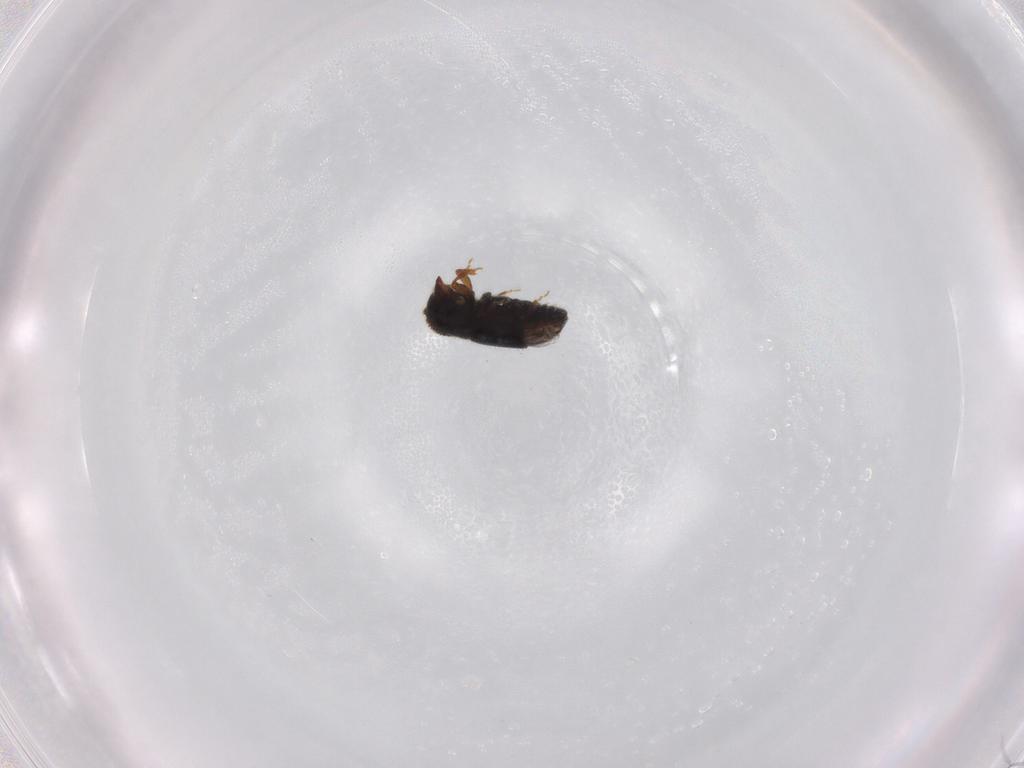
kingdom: Animalia
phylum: Arthropoda
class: Insecta
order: Coleoptera
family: Curculionidae
